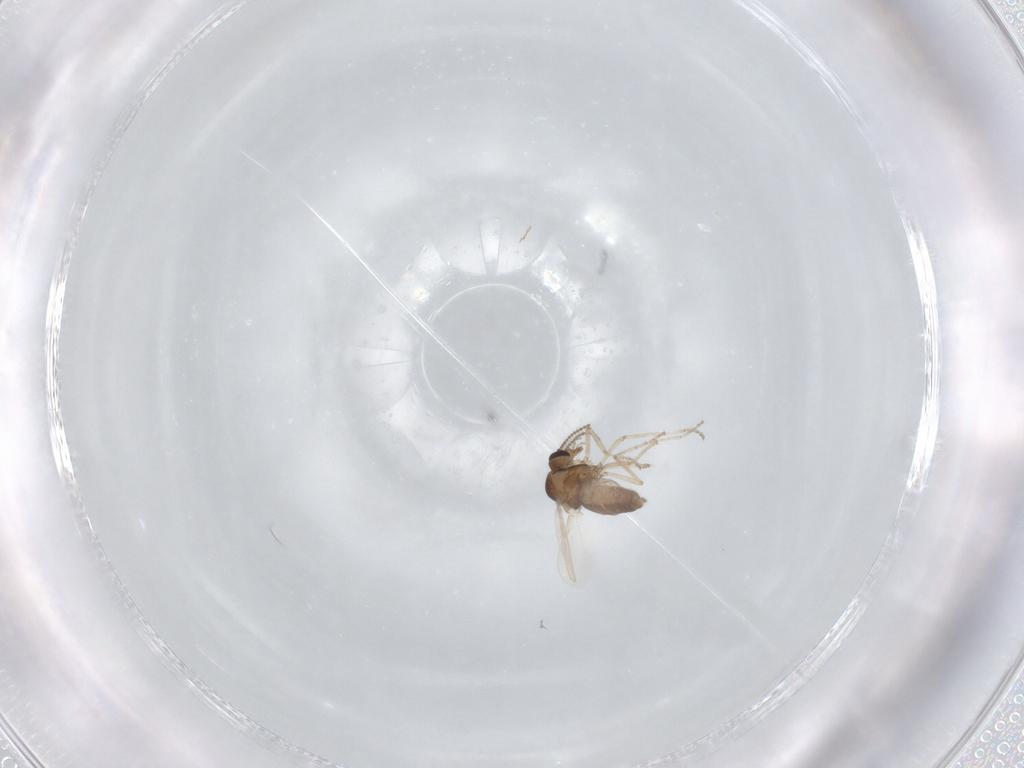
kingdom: Animalia
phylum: Arthropoda
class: Insecta
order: Diptera
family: Ceratopogonidae
